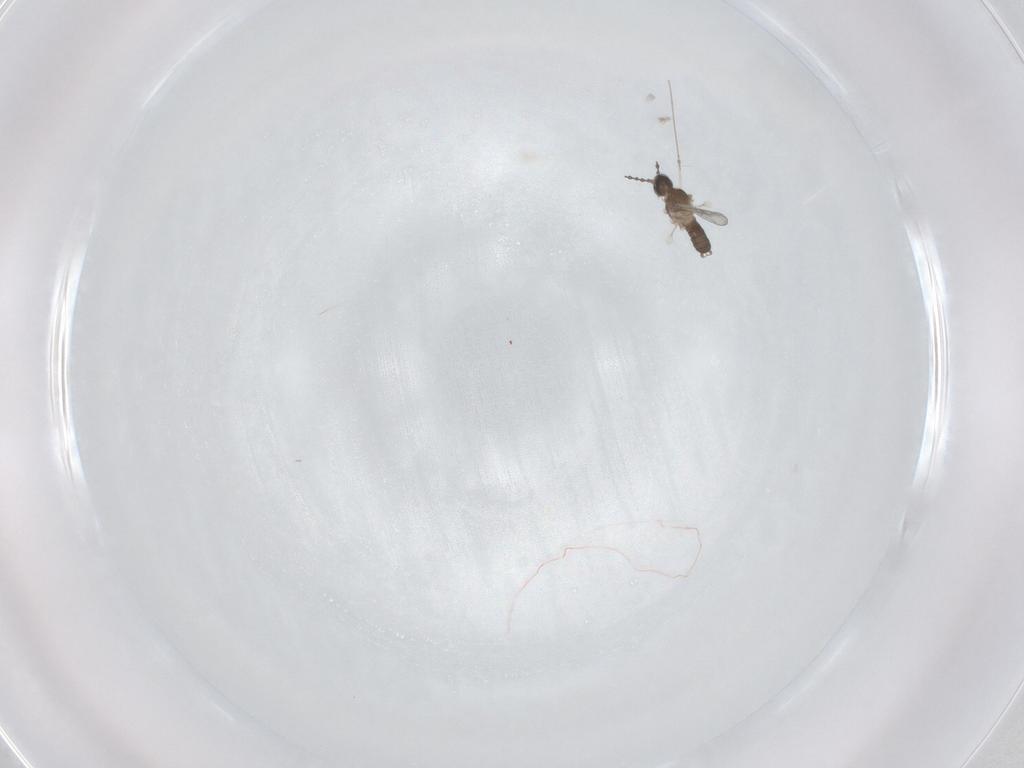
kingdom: Animalia
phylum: Arthropoda
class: Insecta
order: Diptera
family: Cecidomyiidae
